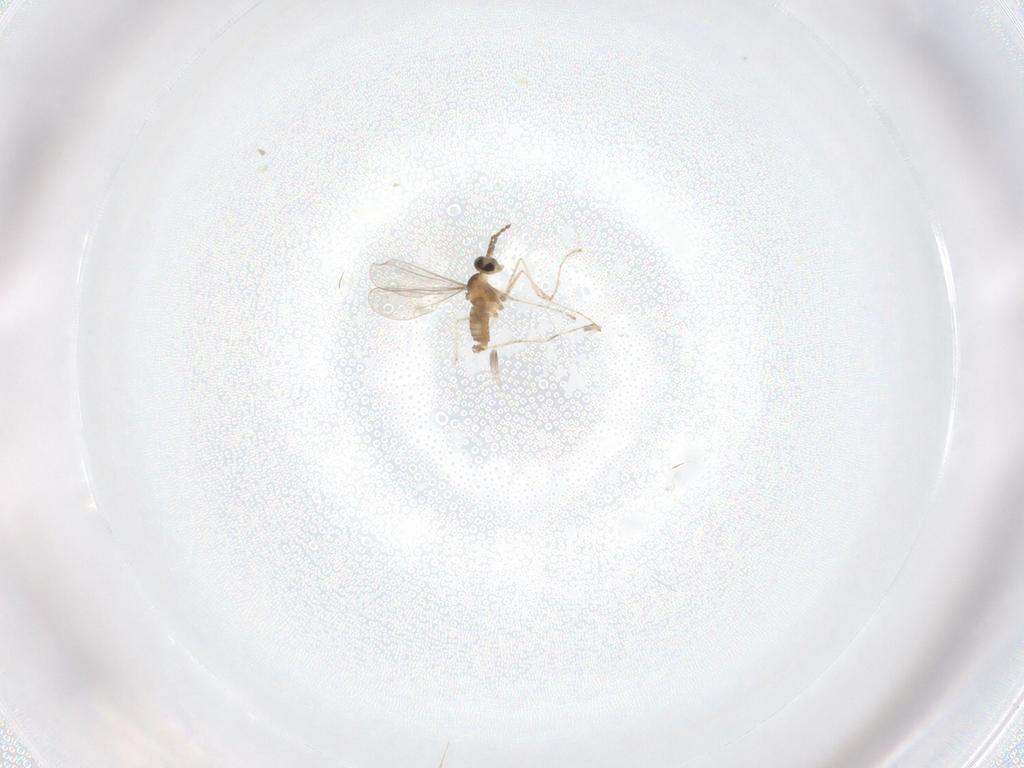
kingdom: Animalia
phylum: Arthropoda
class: Insecta
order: Diptera
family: Cecidomyiidae
